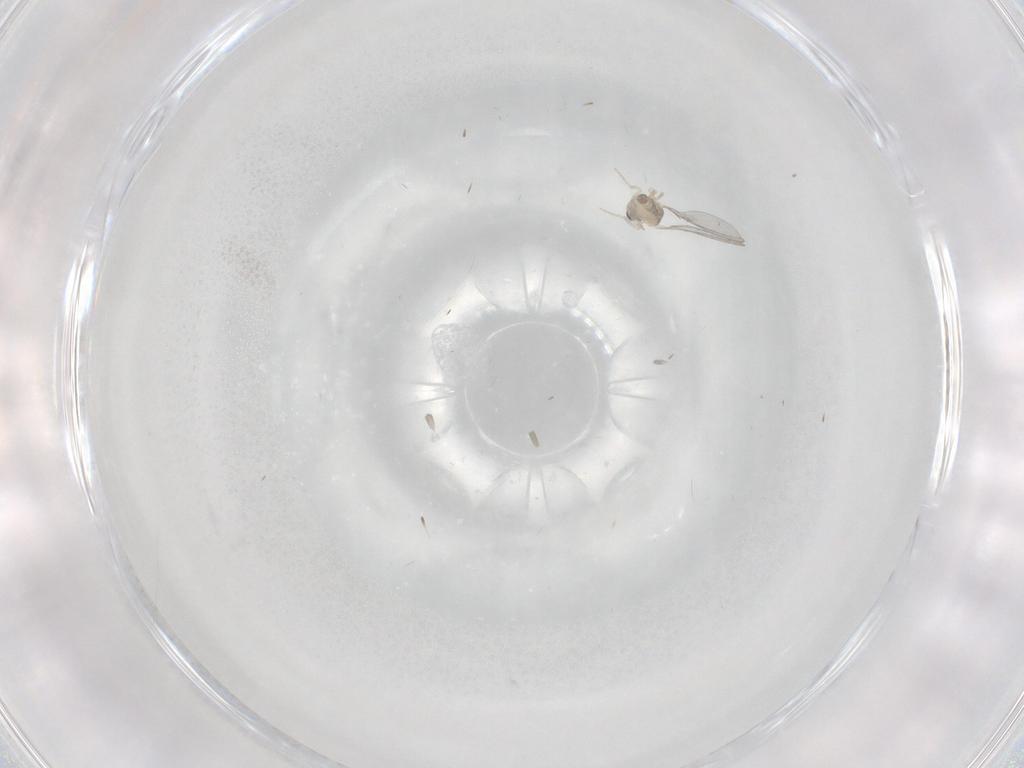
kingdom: Animalia
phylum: Arthropoda
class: Insecta
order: Diptera
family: Cecidomyiidae
